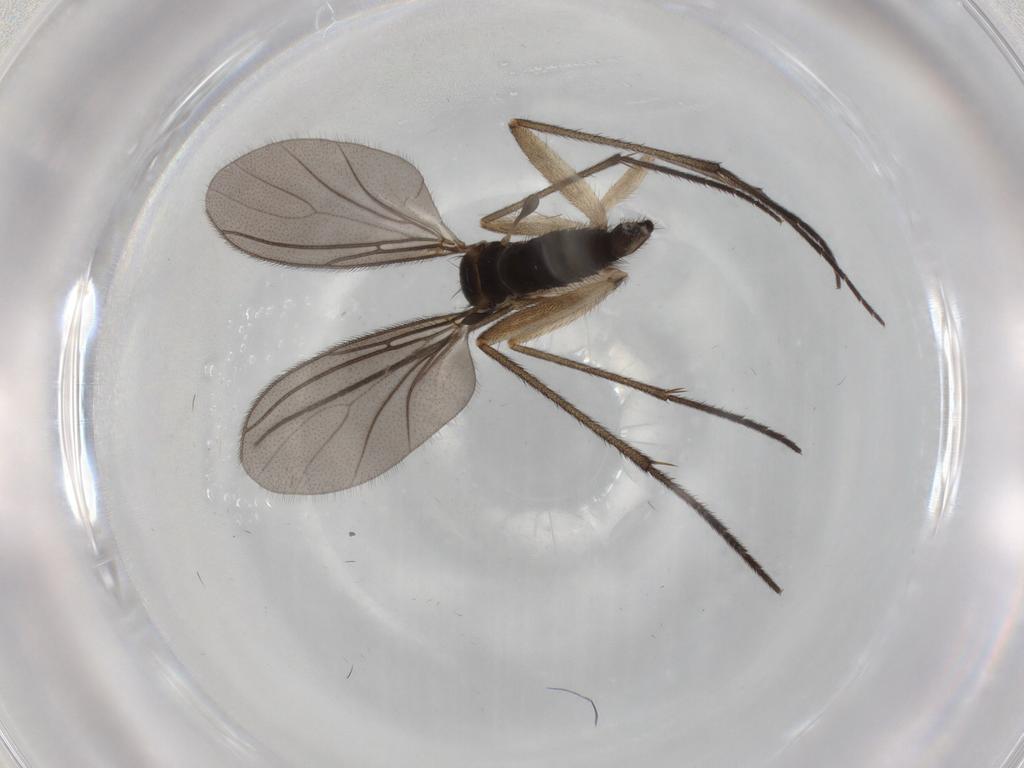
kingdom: Animalia
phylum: Arthropoda
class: Insecta
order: Diptera
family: Sciaridae
